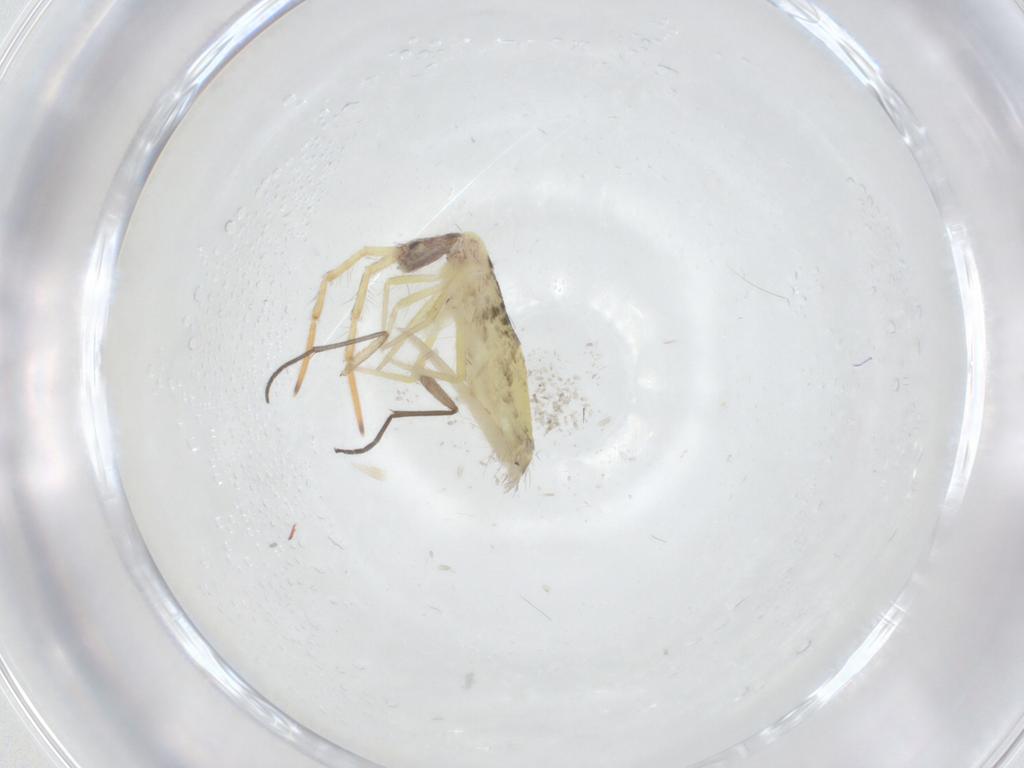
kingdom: Animalia
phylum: Arthropoda
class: Collembola
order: Entomobryomorpha
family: Entomobryidae
